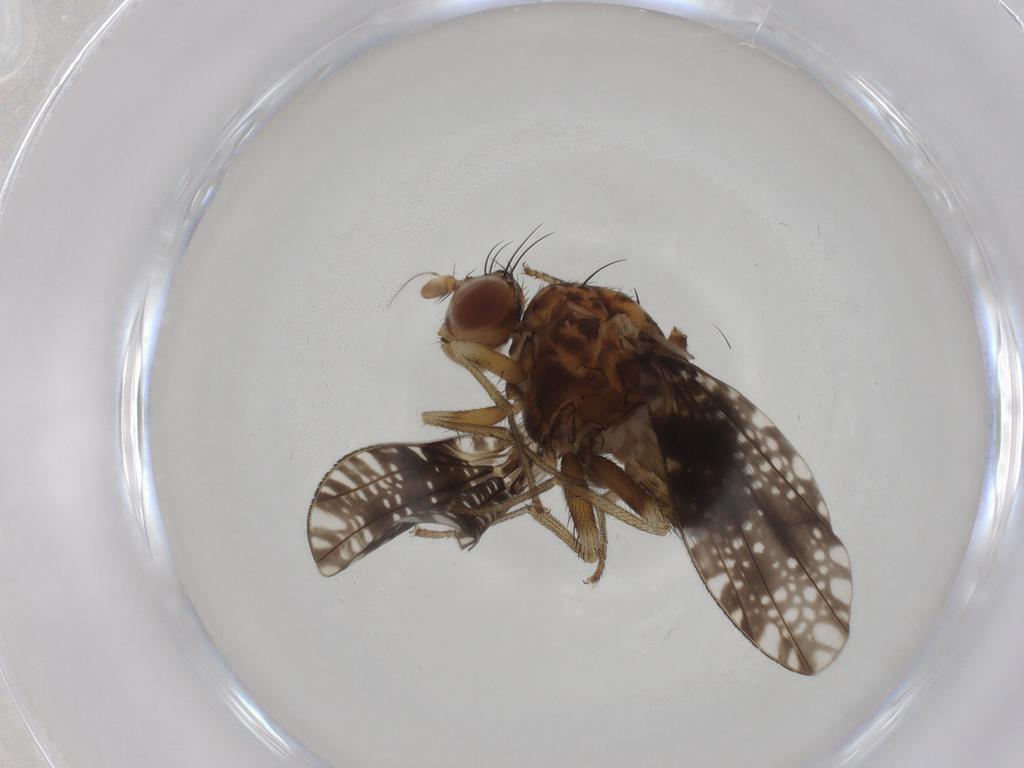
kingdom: Animalia
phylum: Arthropoda
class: Insecta
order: Diptera
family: Lauxaniidae
